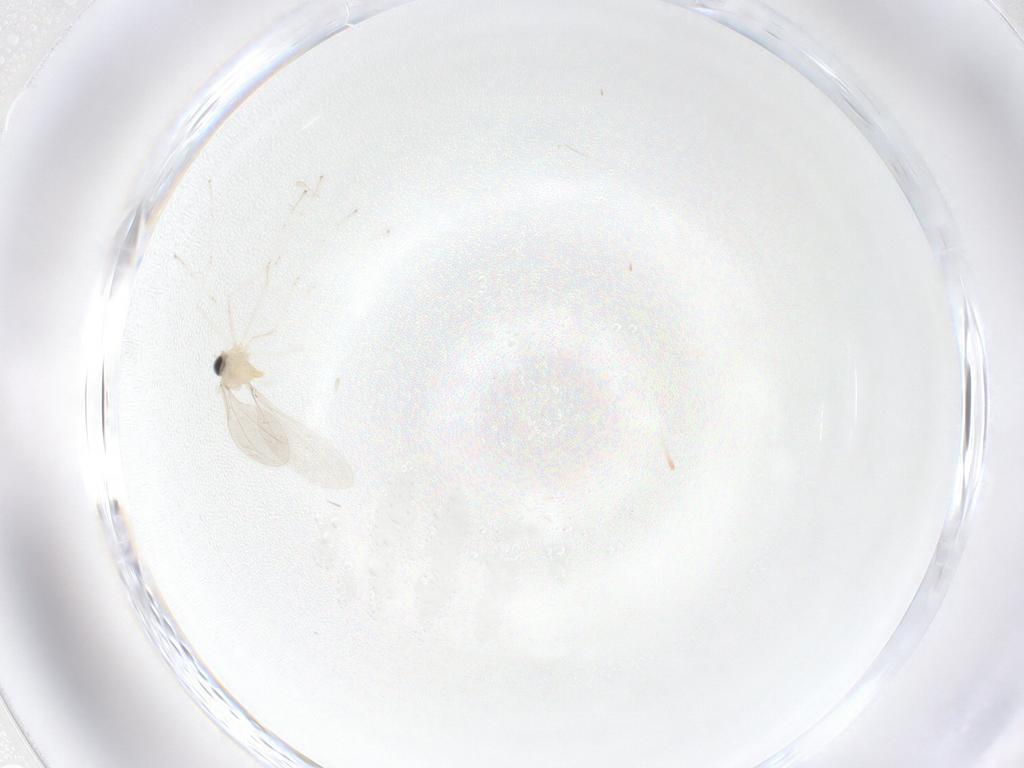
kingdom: Animalia
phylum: Arthropoda
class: Insecta
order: Diptera
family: Cecidomyiidae
